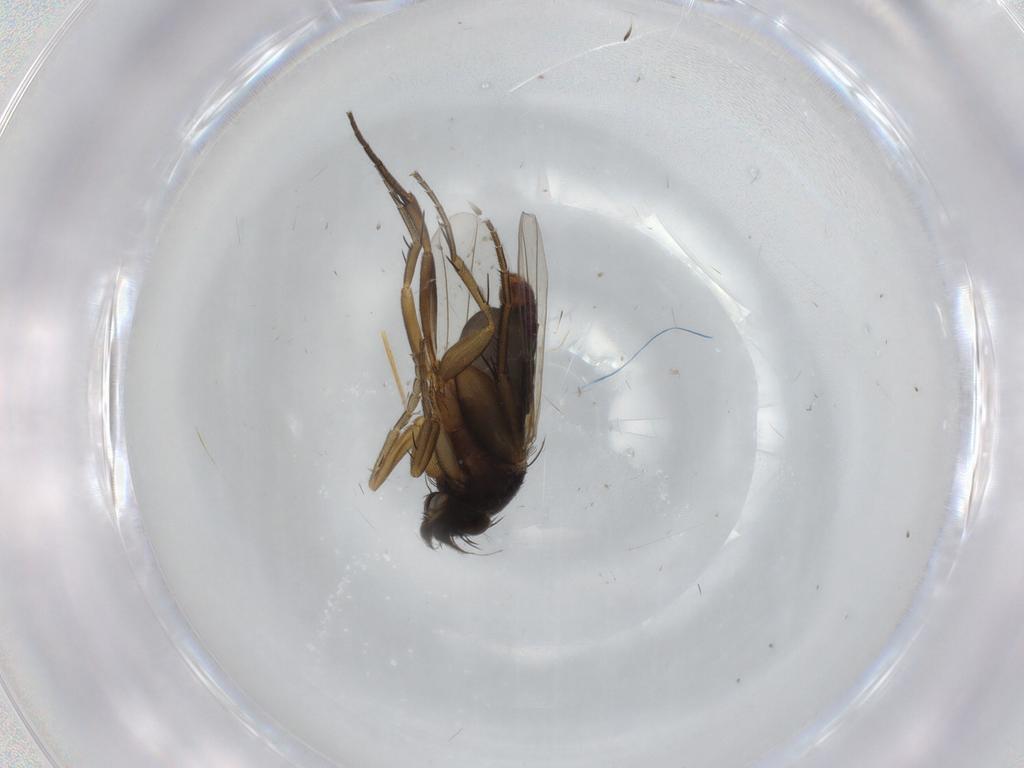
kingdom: Animalia
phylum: Arthropoda
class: Insecta
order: Diptera
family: Phoridae
